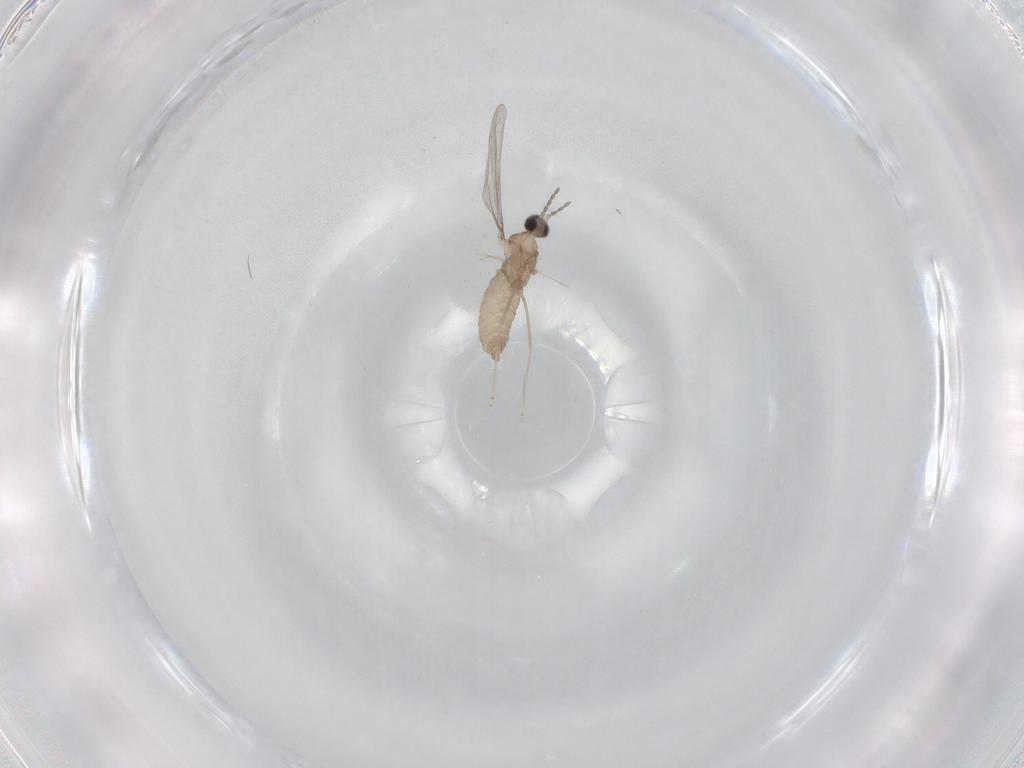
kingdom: Animalia
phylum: Arthropoda
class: Insecta
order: Diptera
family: Cecidomyiidae
